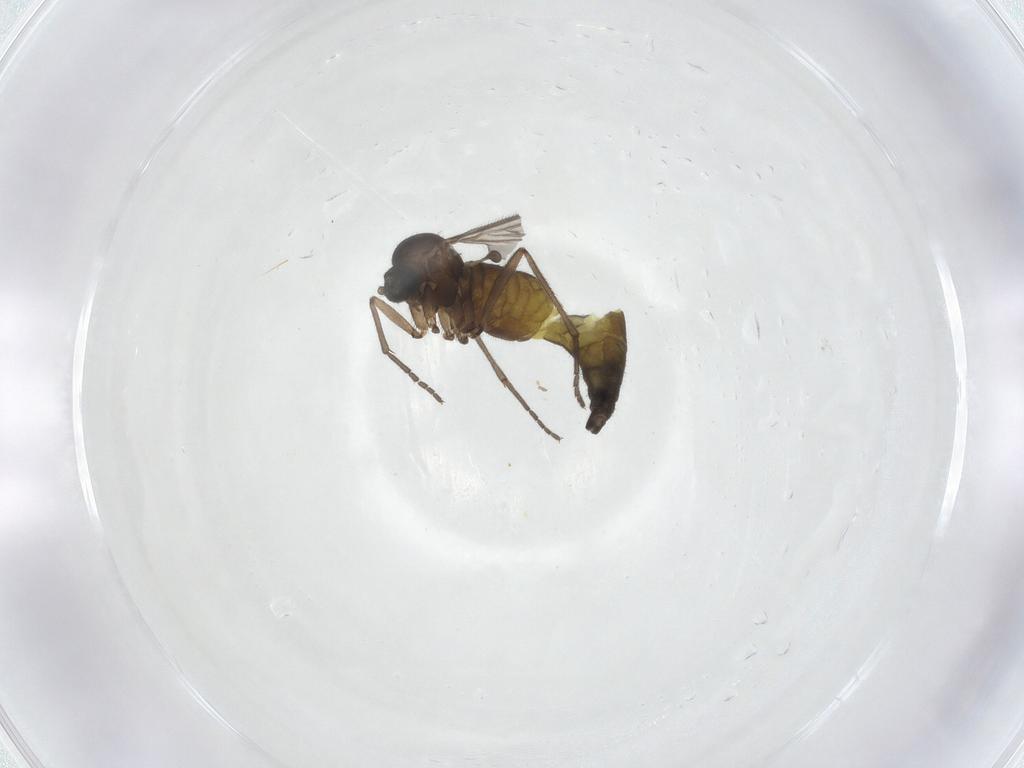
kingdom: Animalia
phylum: Arthropoda
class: Insecta
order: Diptera
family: Sciaridae
